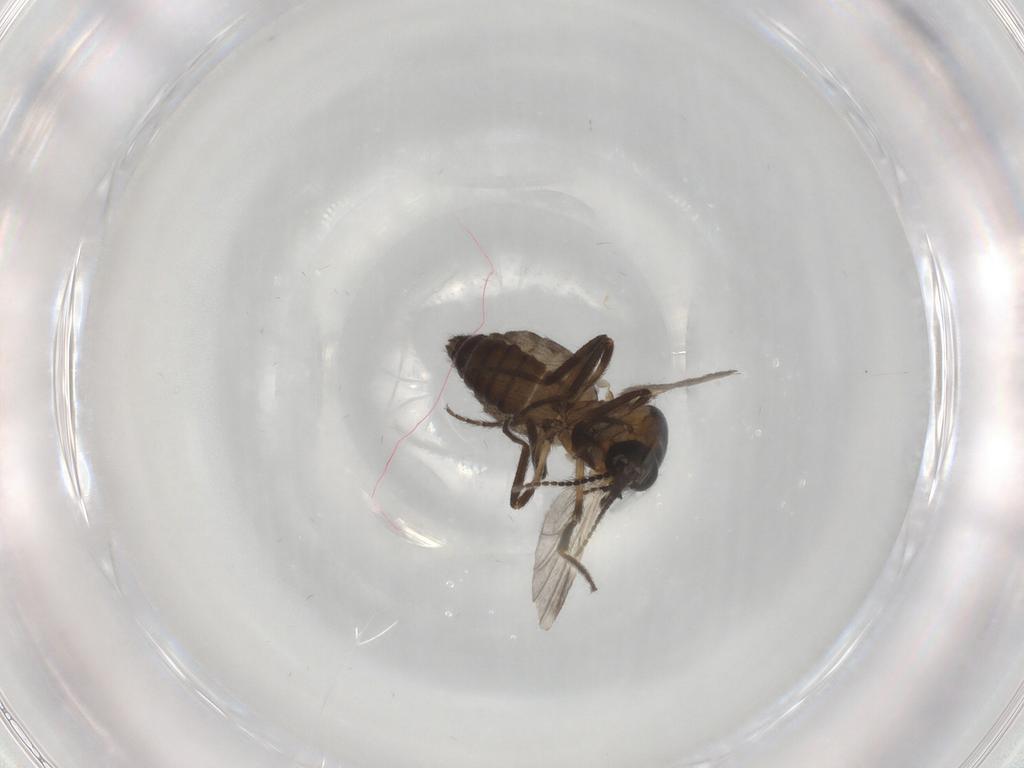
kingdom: Animalia
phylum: Arthropoda
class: Insecta
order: Diptera
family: Ceratopogonidae
